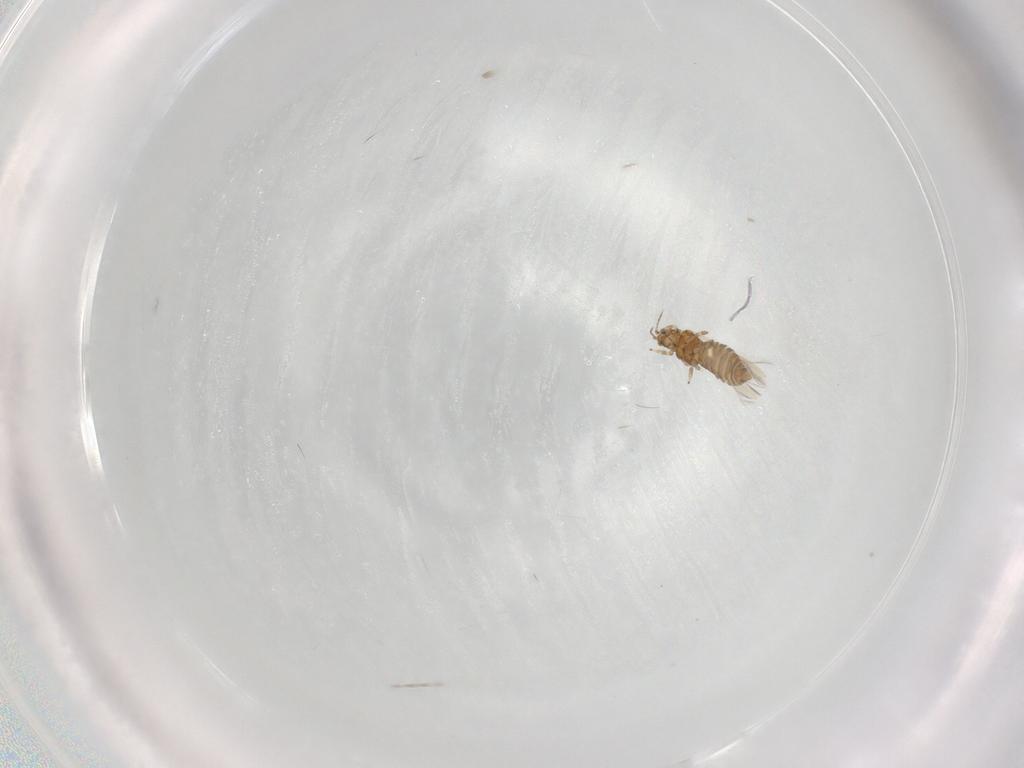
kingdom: Animalia
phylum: Arthropoda
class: Insecta
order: Thysanoptera
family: Thripidae
